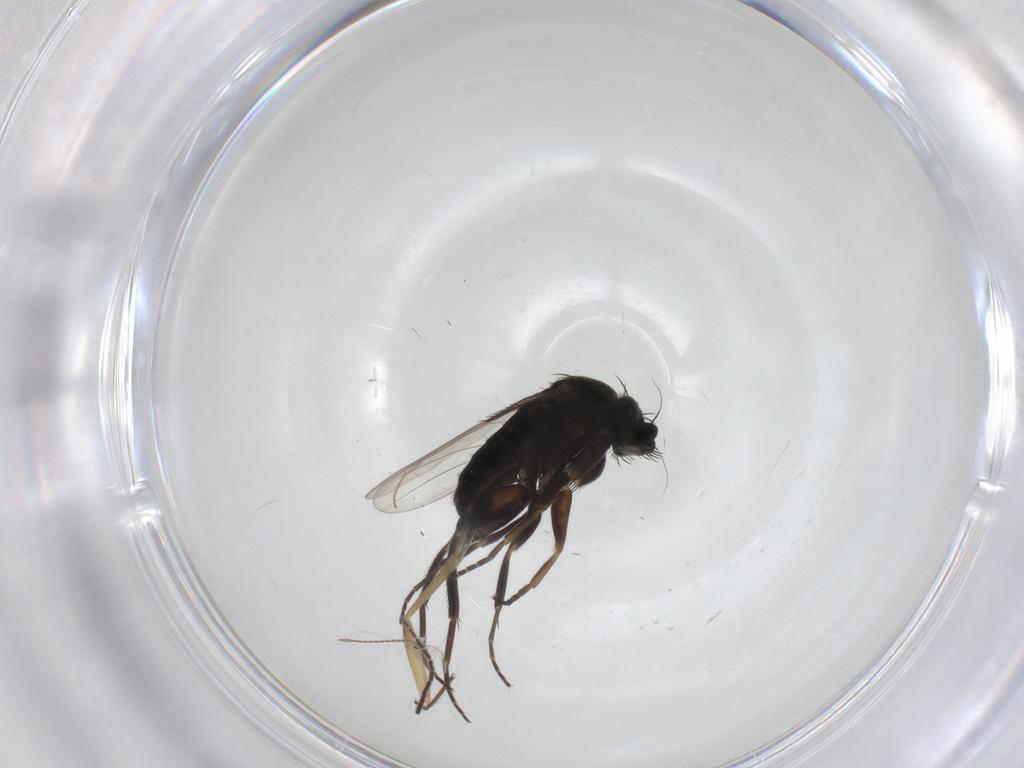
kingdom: Animalia
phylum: Arthropoda
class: Insecta
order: Diptera
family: Phoridae
